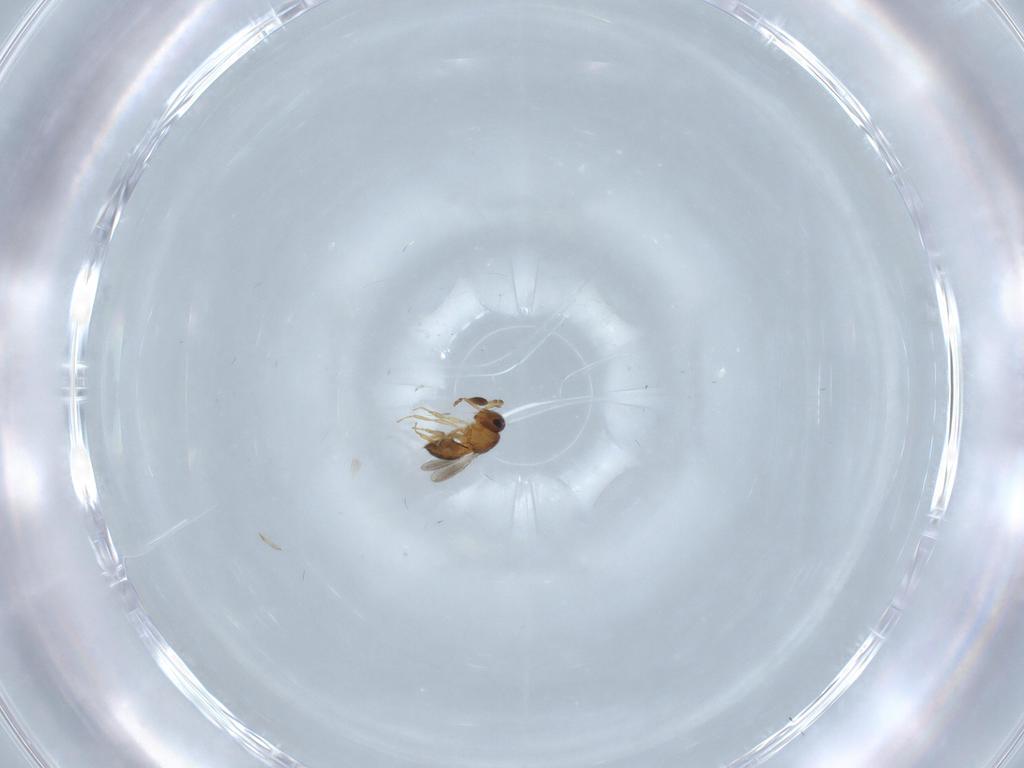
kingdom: Animalia
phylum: Arthropoda
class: Insecta
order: Hymenoptera
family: Scelionidae
